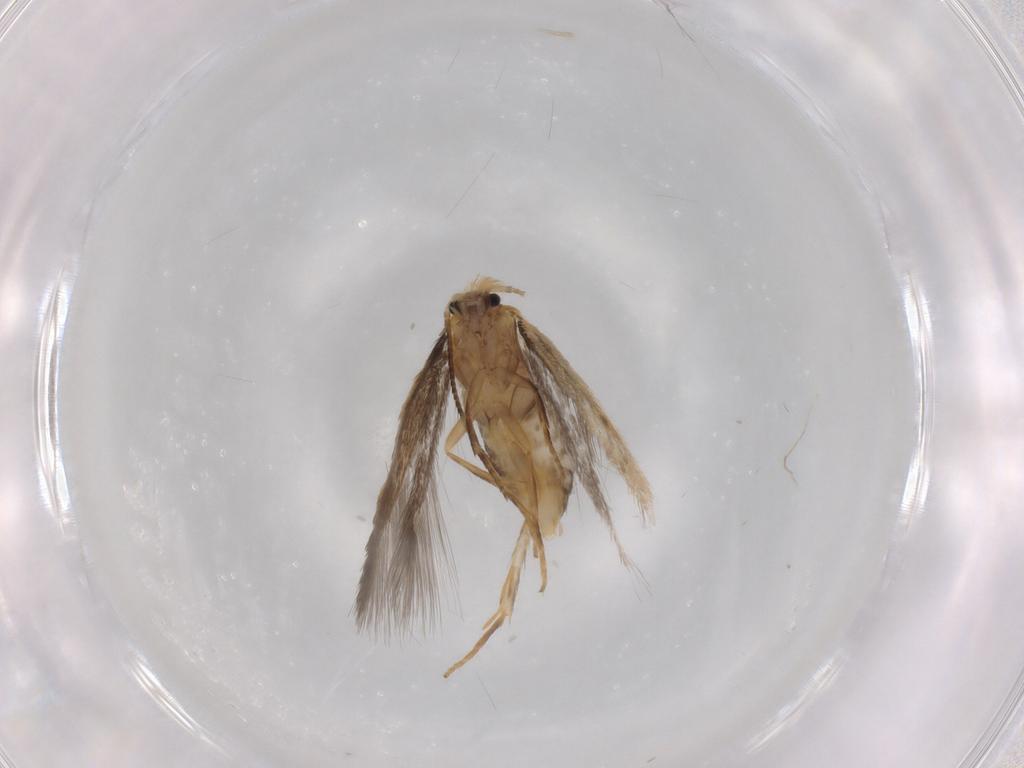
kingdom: Animalia
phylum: Arthropoda
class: Insecta
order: Lepidoptera
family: Nepticulidae
